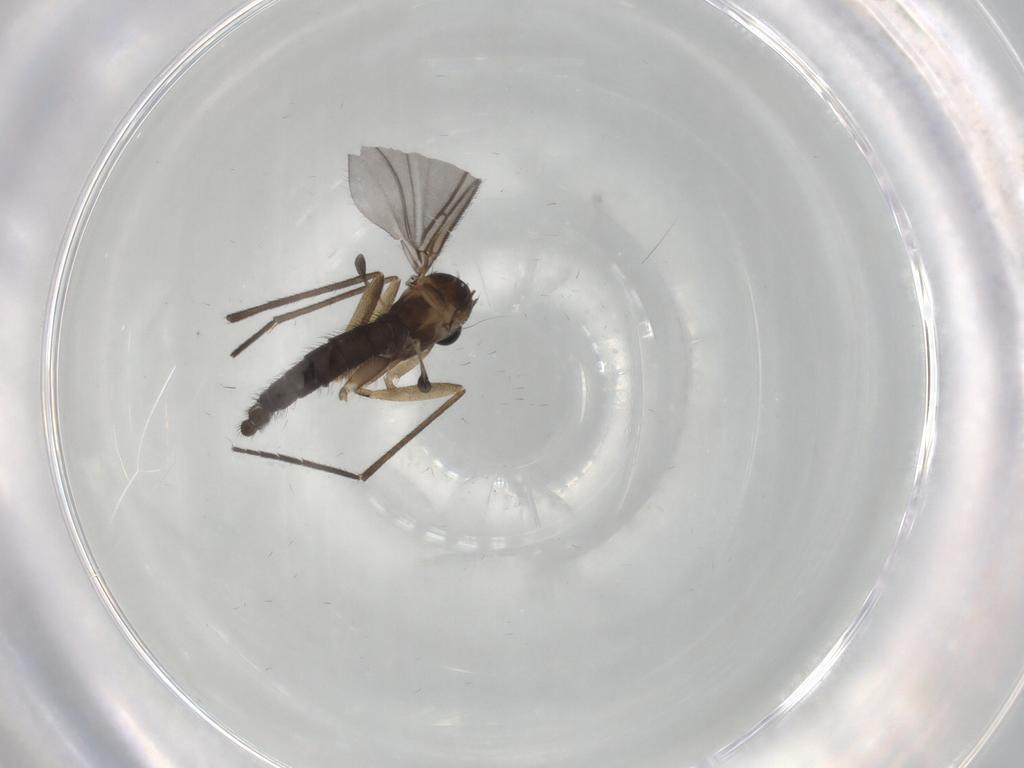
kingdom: Animalia
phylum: Arthropoda
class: Insecta
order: Diptera
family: Sciaridae
